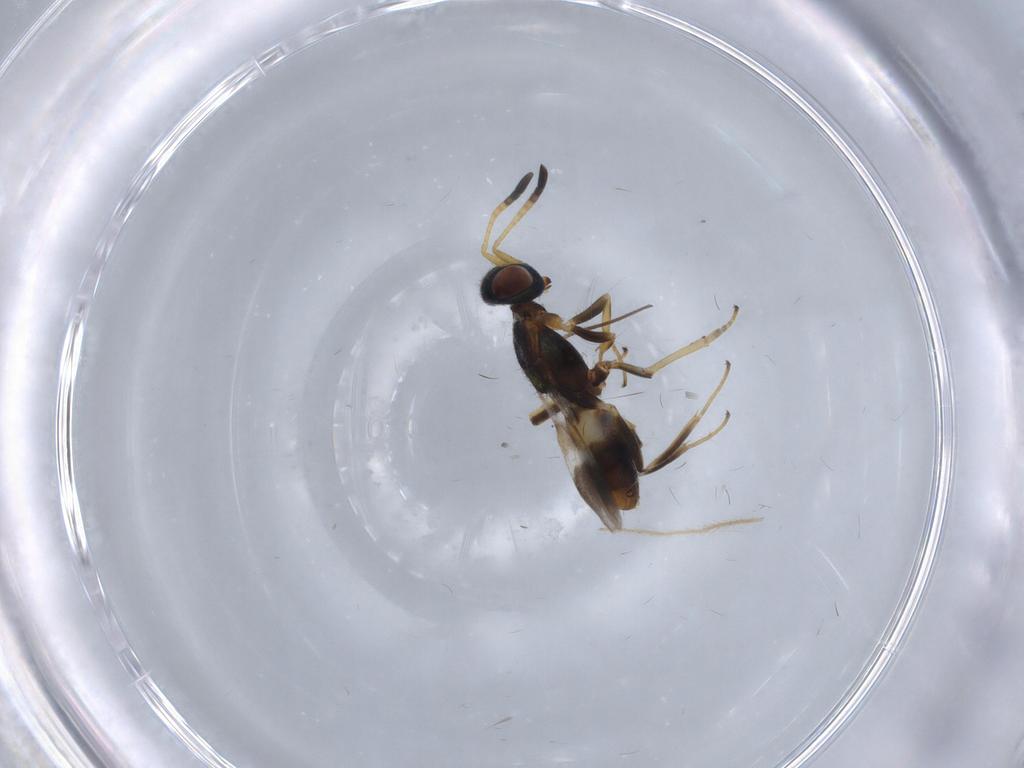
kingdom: Animalia
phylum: Arthropoda
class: Insecta
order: Hymenoptera
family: Eupelmidae
